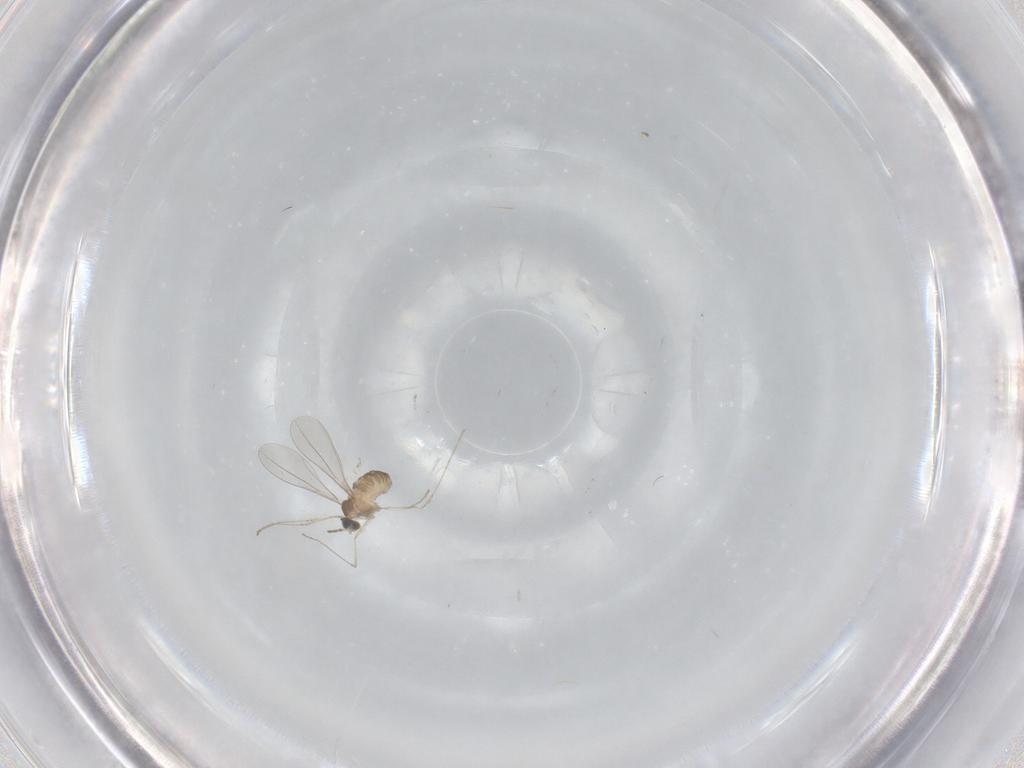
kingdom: Animalia
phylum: Arthropoda
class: Insecta
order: Diptera
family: Cecidomyiidae
